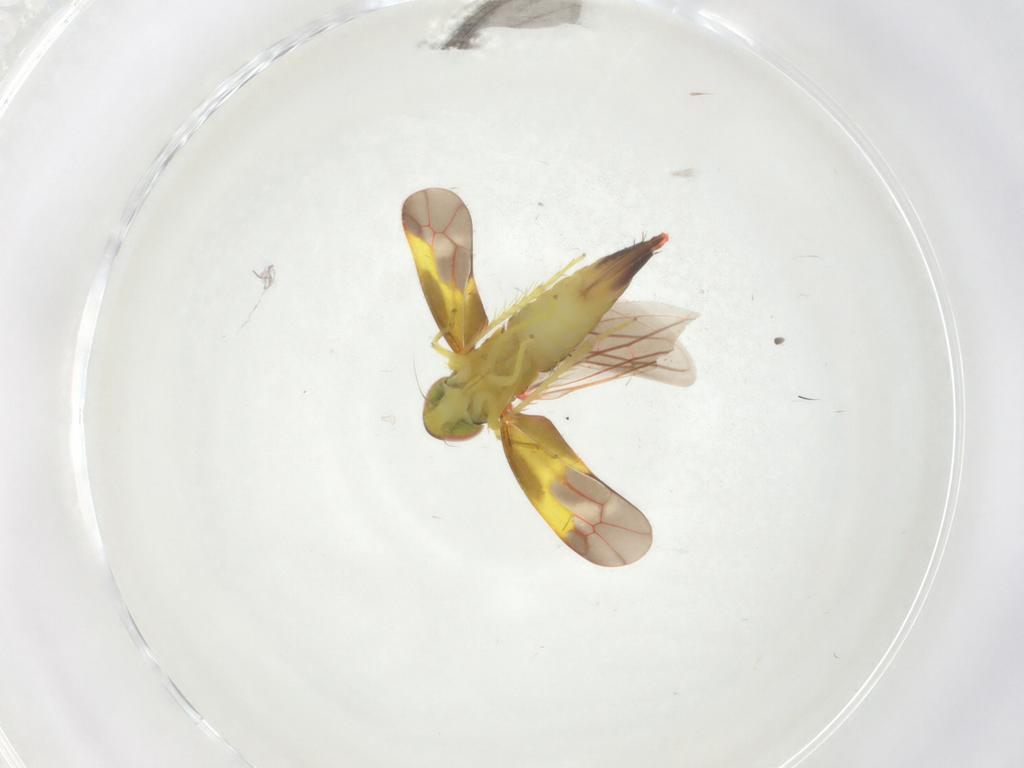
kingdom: Animalia
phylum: Arthropoda
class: Insecta
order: Hemiptera
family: Cicadellidae
